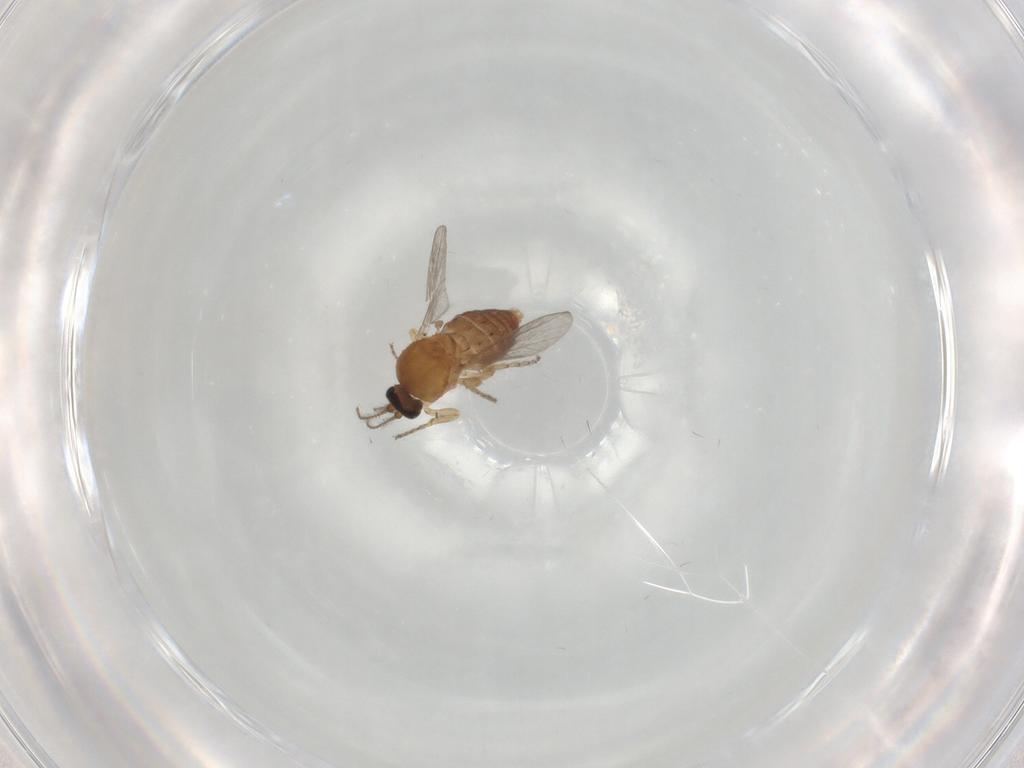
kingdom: Animalia
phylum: Arthropoda
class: Insecta
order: Diptera
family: Ceratopogonidae
